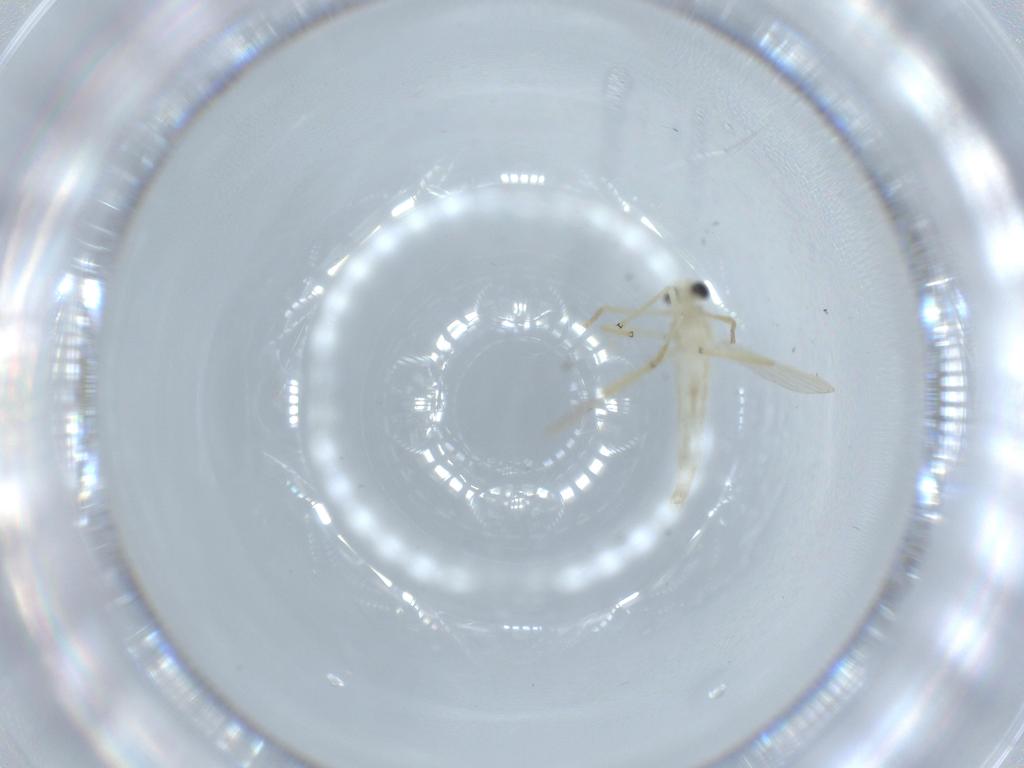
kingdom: Animalia
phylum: Arthropoda
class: Insecta
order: Diptera
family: Chironomidae
